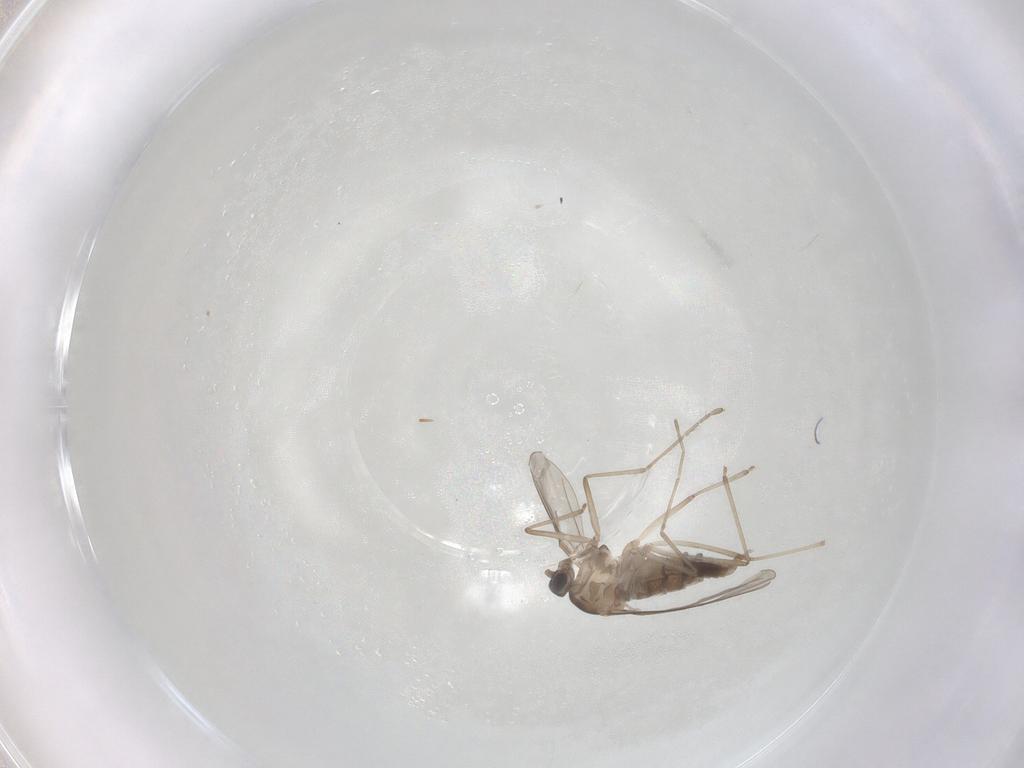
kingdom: Animalia
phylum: Arthropoda
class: Insecta
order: Diptera
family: Cecidomyiidae
